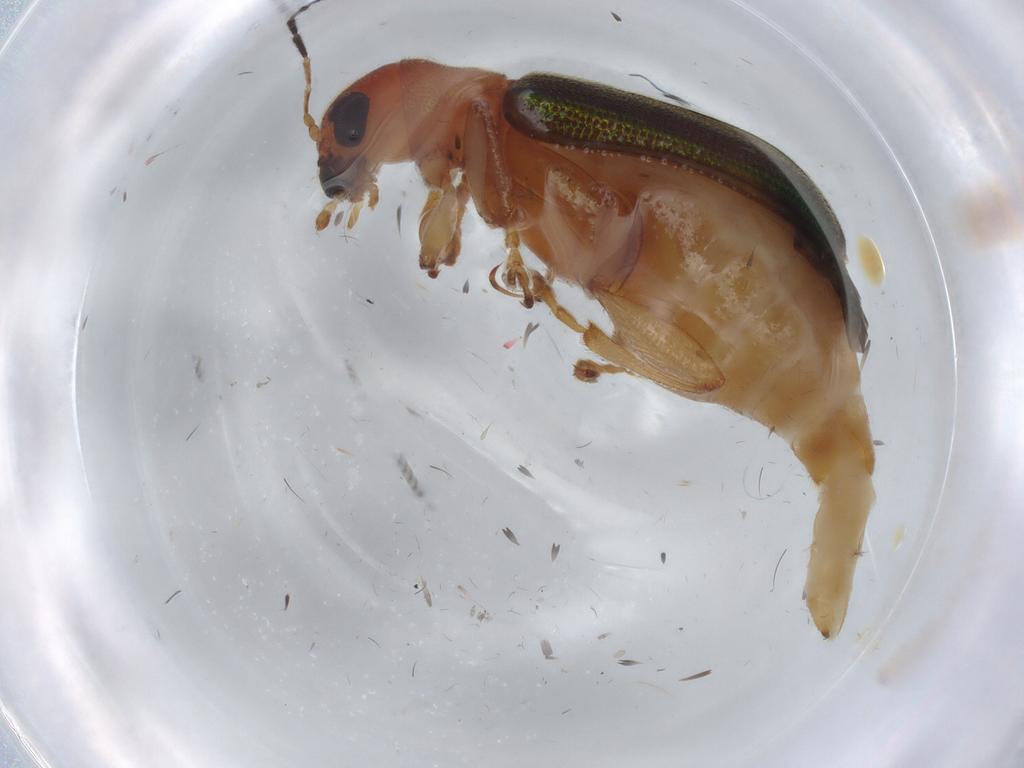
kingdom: Animalia
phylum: Arthropoda
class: Insecta
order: Coleoptera
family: Chrysomelidae
